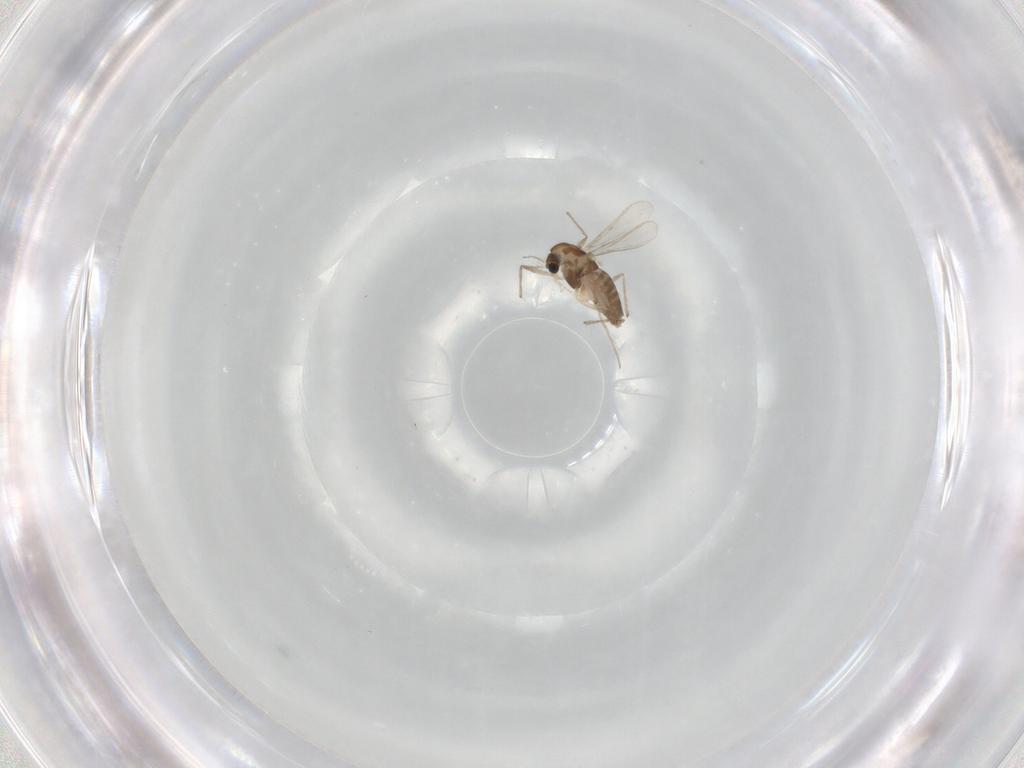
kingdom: Animalia
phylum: Arthropoda
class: Insecta
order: Diptera
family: Chironomidae
